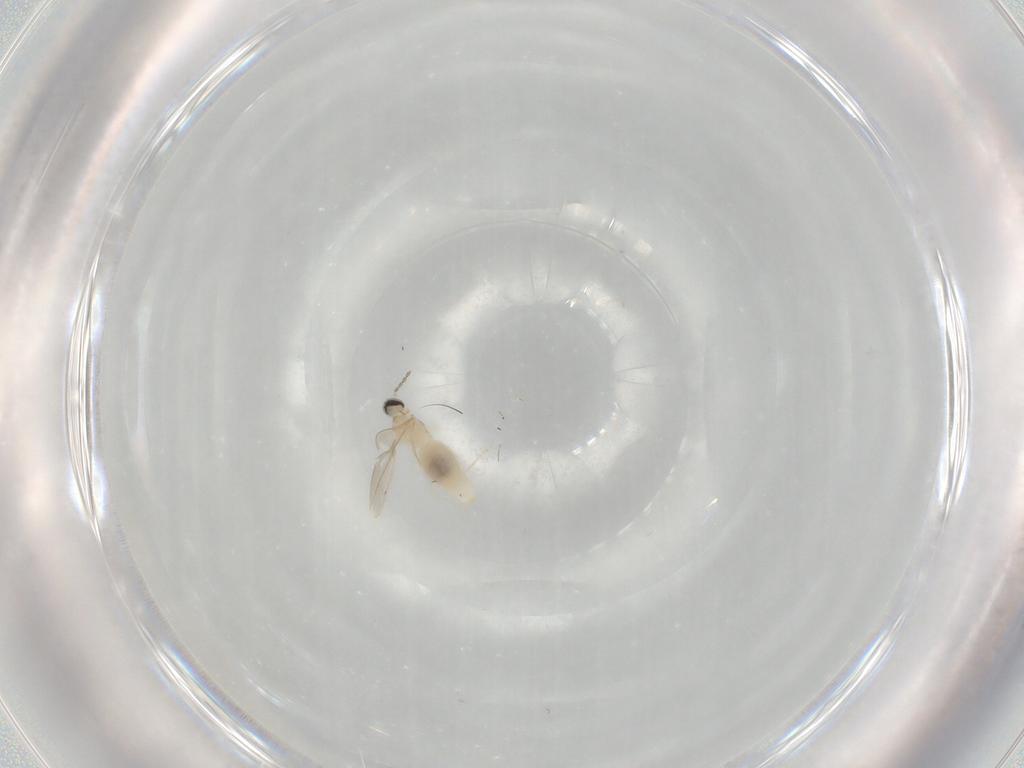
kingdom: Animalia
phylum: Arthropoda
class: Insecta
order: Diptera
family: Cecidomyiidae
